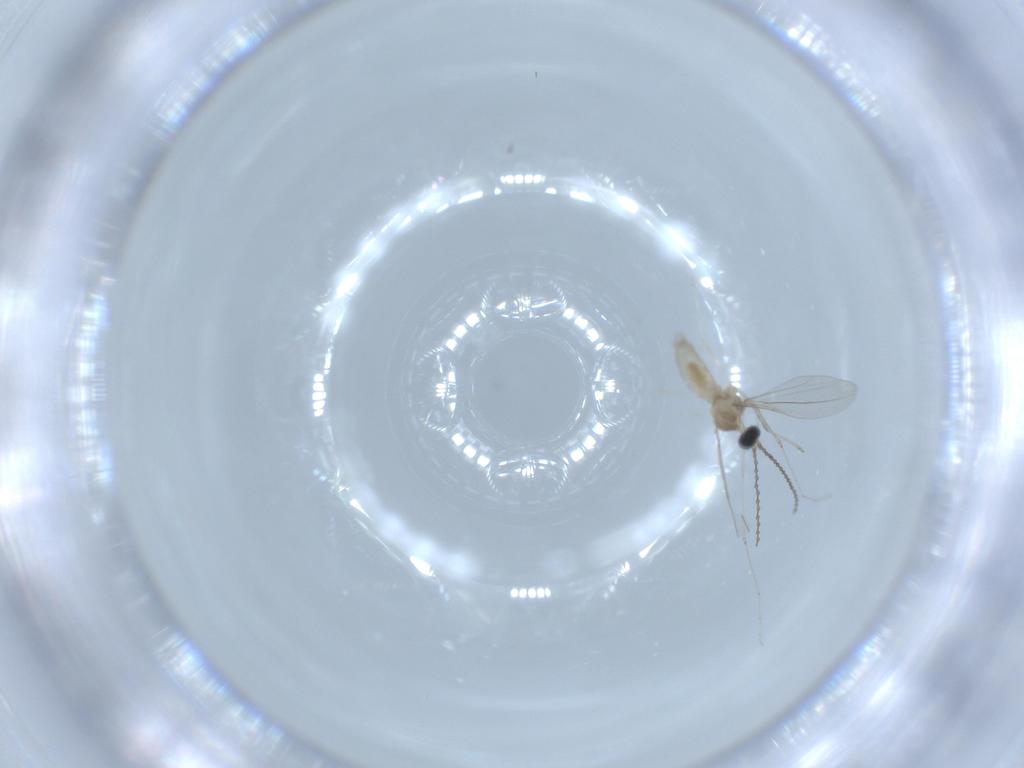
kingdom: Animalia
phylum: Arthropoda
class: Insecta
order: Diptera
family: Cecidomyiidae
